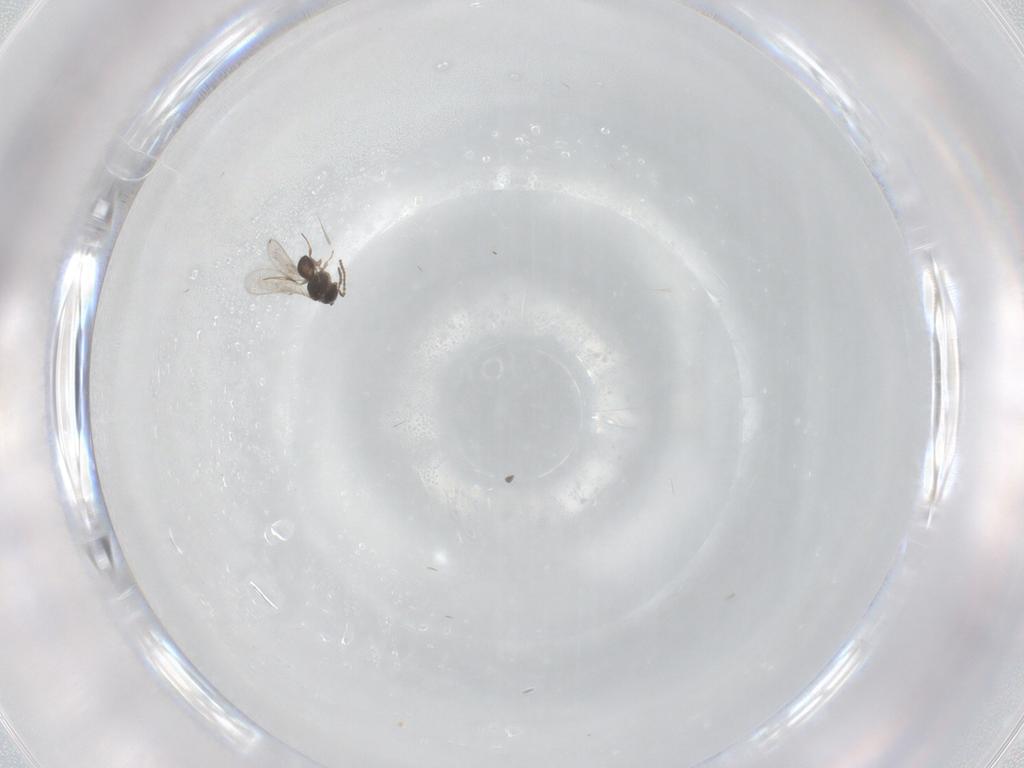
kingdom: Animalia
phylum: Arthropoda
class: Insecta
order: Hymenoptera
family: Scelionidae
